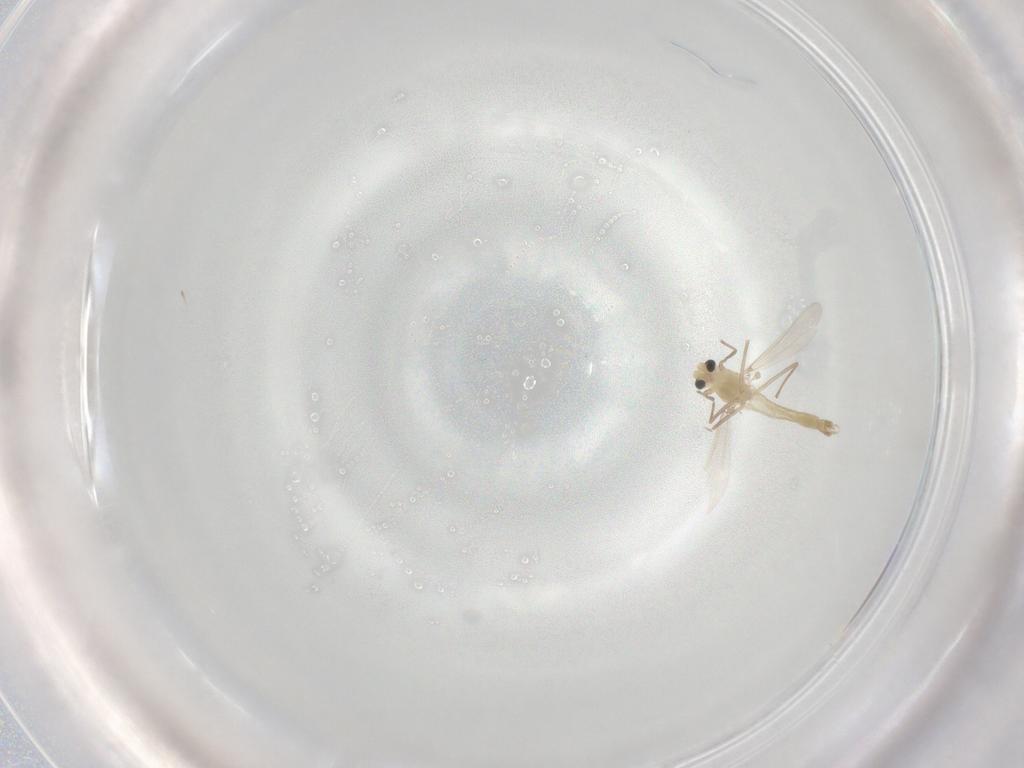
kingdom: Animalia
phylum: Arthropoda
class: Insecta
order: Diptera
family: Chironomidae
